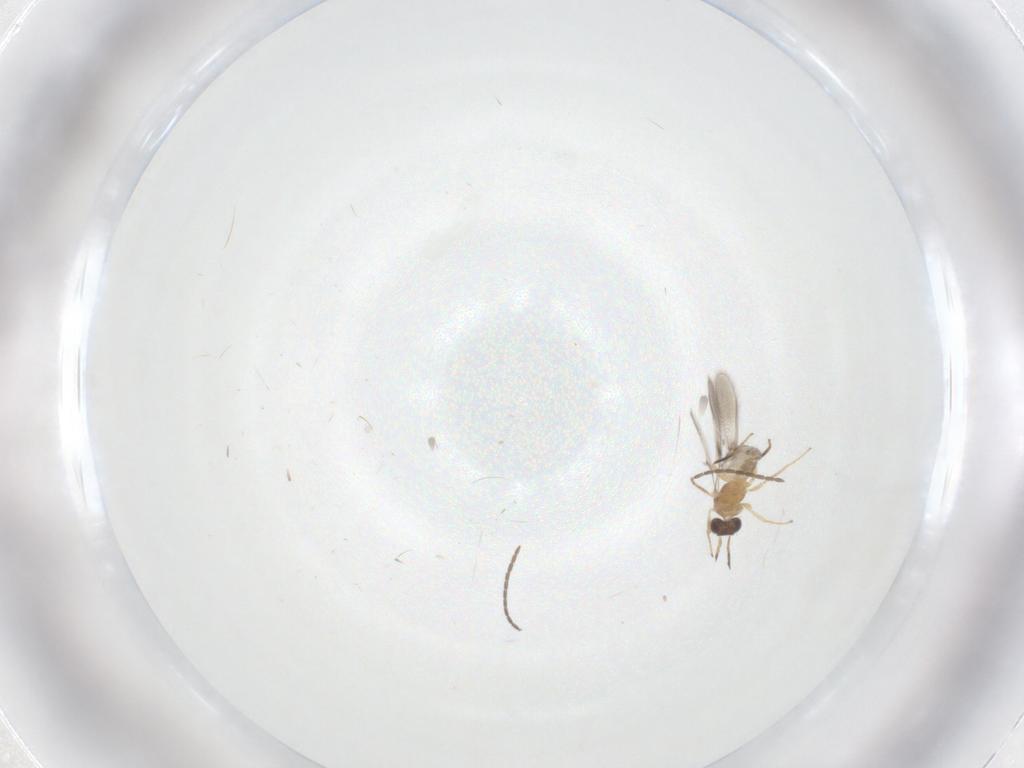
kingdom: Animalia
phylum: Arthropoda
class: Insecta
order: Hymenoptera
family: Mymaridae
